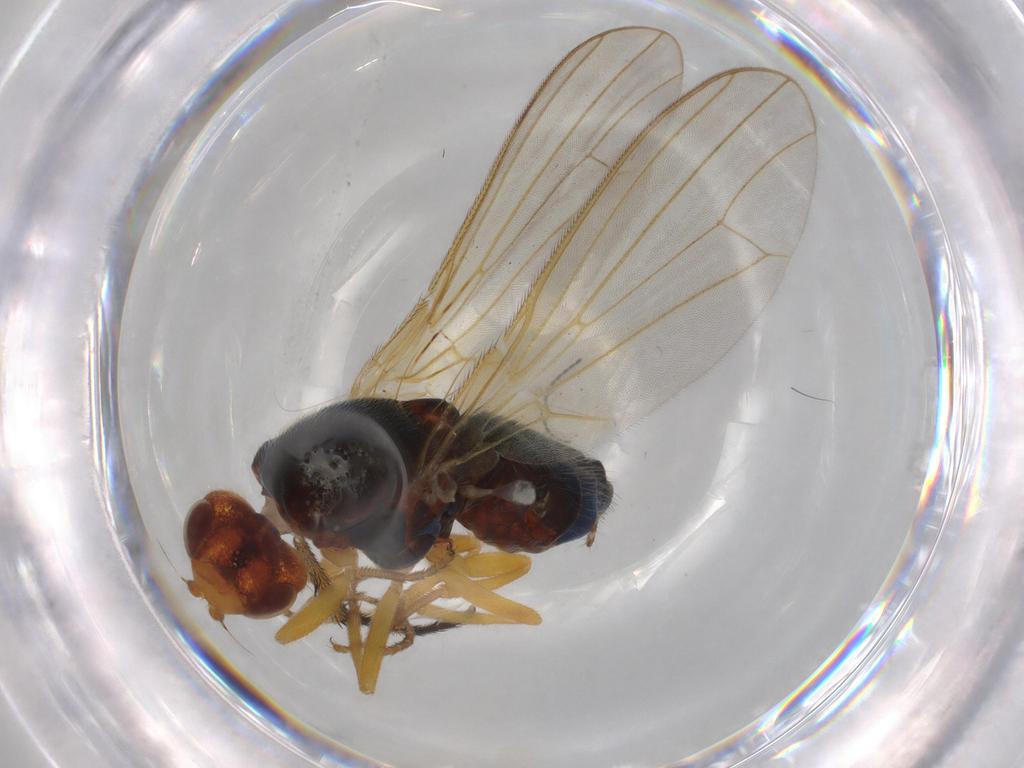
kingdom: Animalia
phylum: Arthropoda
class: Insecta
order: Diptera
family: Muscidae
